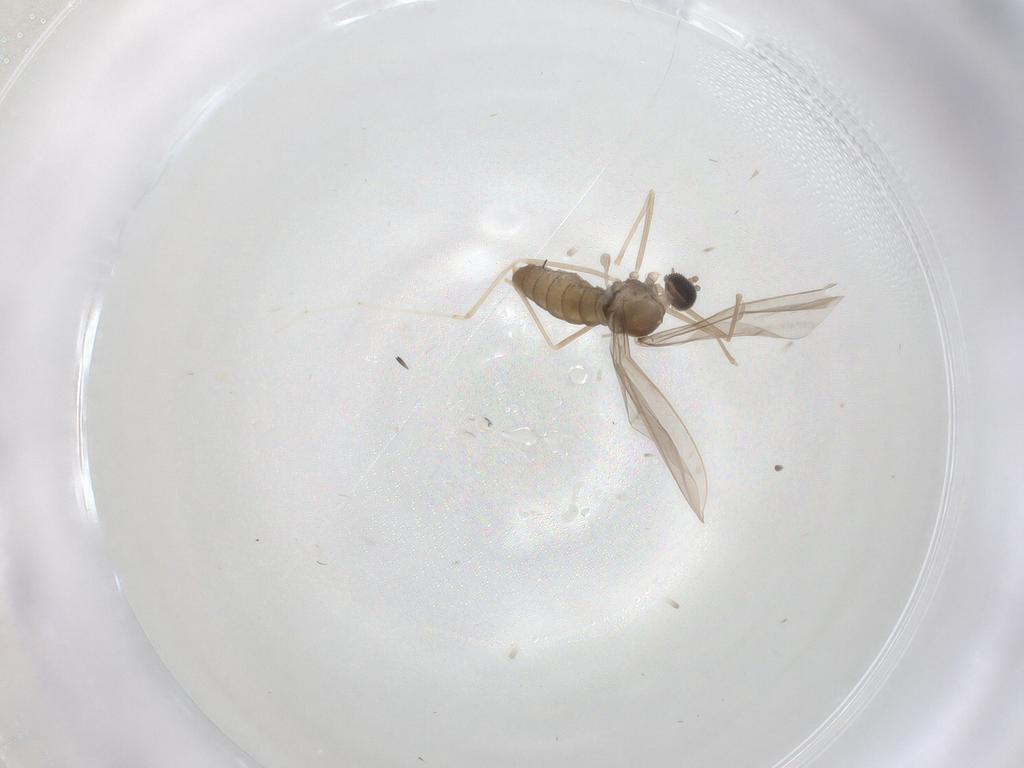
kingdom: Animalia
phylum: Arthropoda
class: Insecta
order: Diptera
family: Cecidomyiidae
